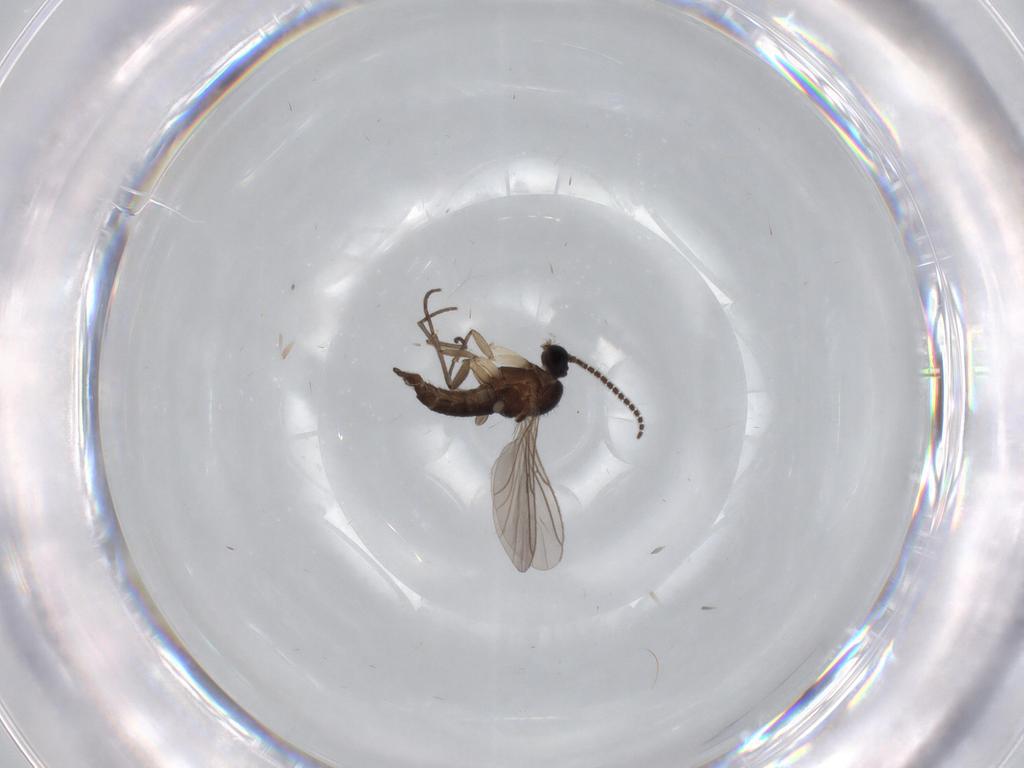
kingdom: Animalia
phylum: Arthropoda
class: Insecta
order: Diptera
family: Sciaridae
